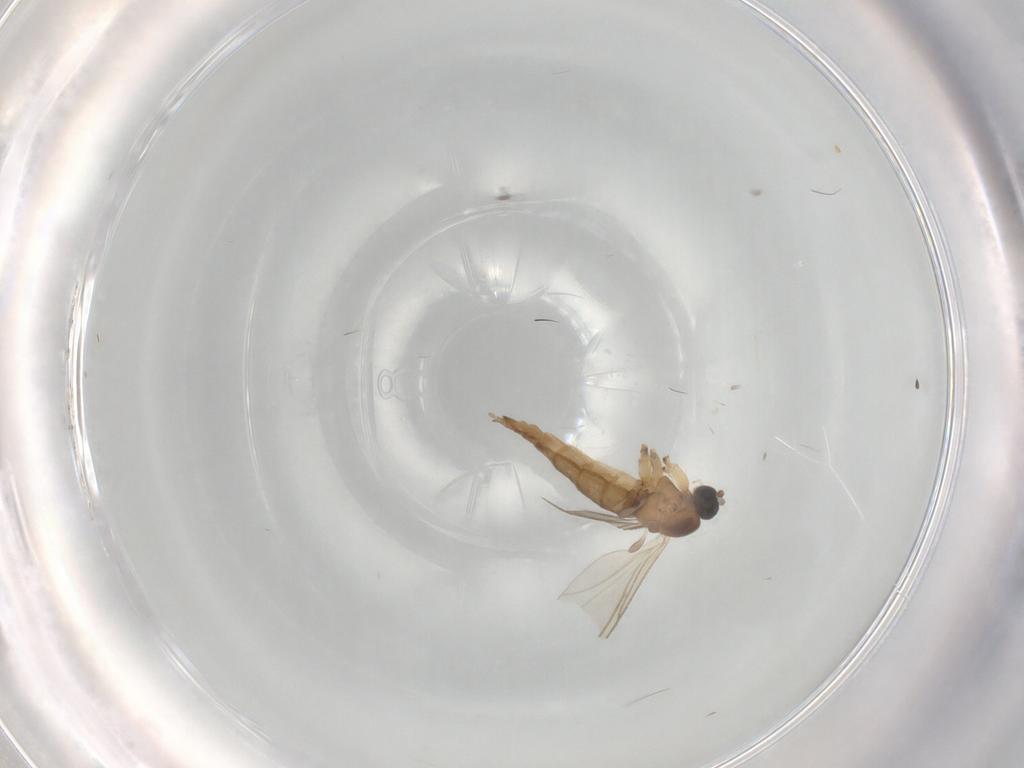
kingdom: Animalia
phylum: Arthropoda
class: Insecta
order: Diptera
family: Sciaridae
